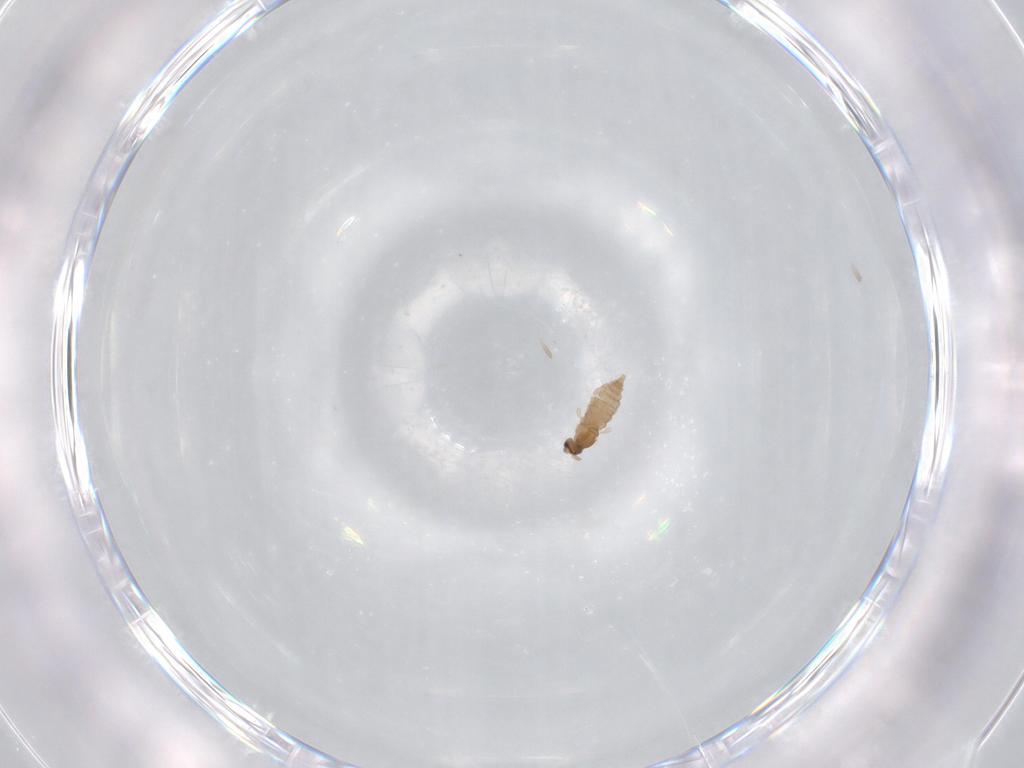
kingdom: Animalia
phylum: Arthropoda
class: Insecta
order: Diptera
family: Cecidomyiidae
